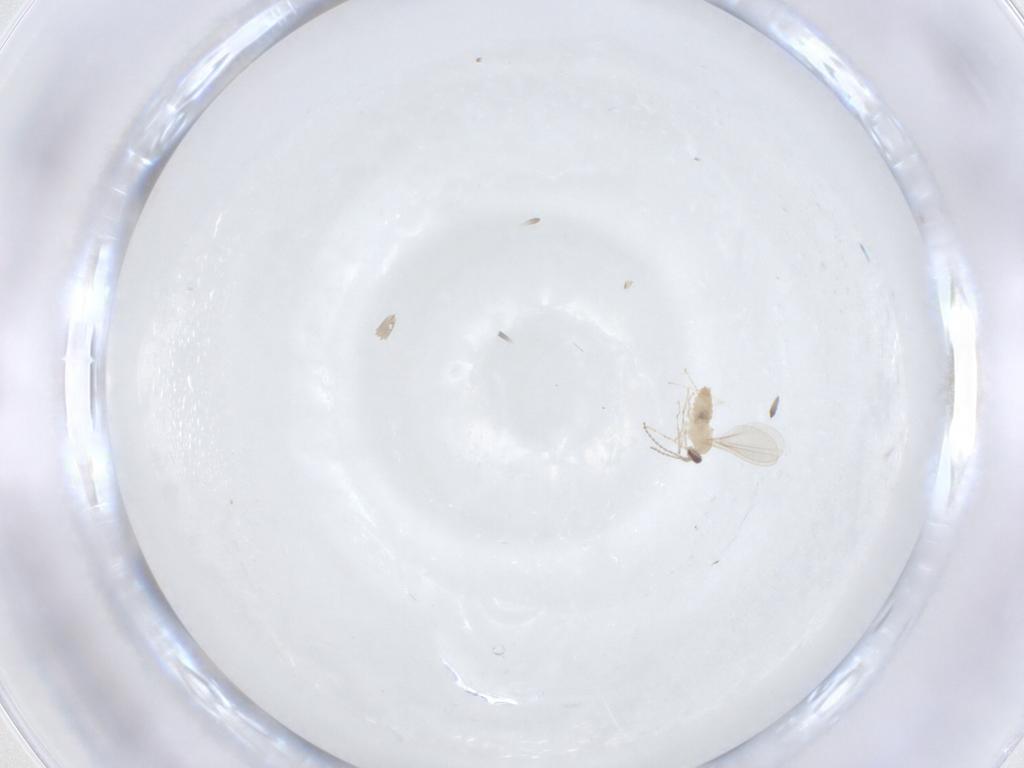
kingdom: Animalia
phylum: Arthropoda
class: Insecta
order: Diptera
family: Cecidomyiidae
